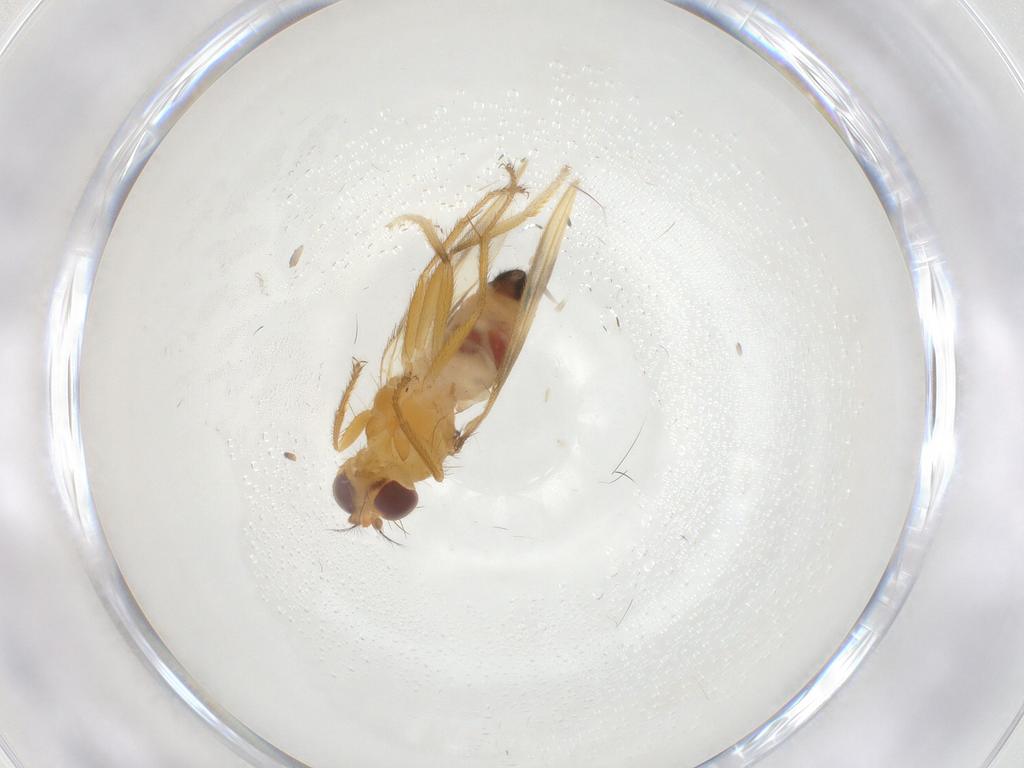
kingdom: Animalia
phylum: Arthropoda
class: Insecta
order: Diptera
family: Periscelididae
